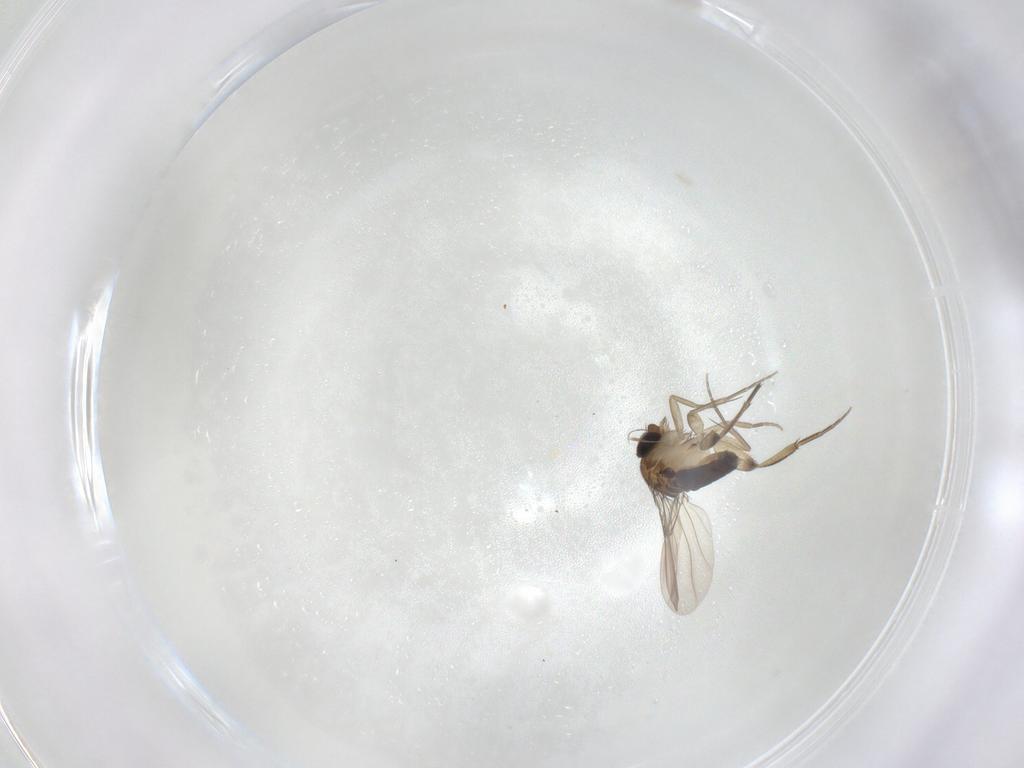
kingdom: Animalia
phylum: Arthropoda
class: Insecta
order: Diptera
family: Phoridae
